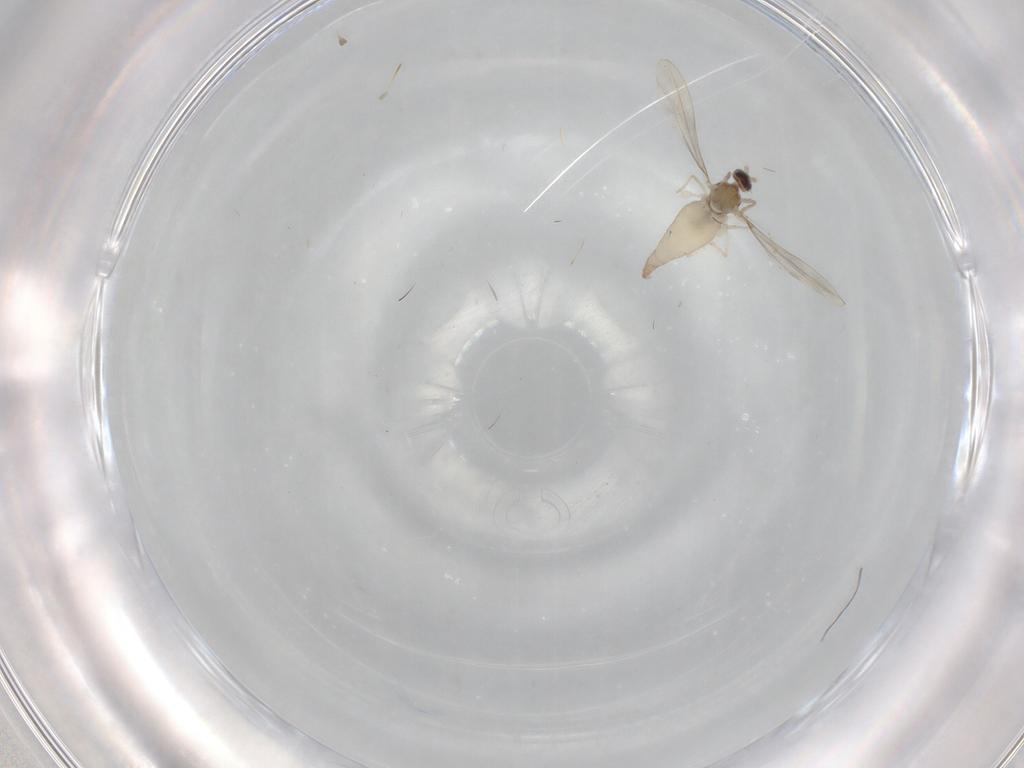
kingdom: Animalia
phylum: Arthropoda
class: Insecta
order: Diptera
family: Cecidomyiidae
